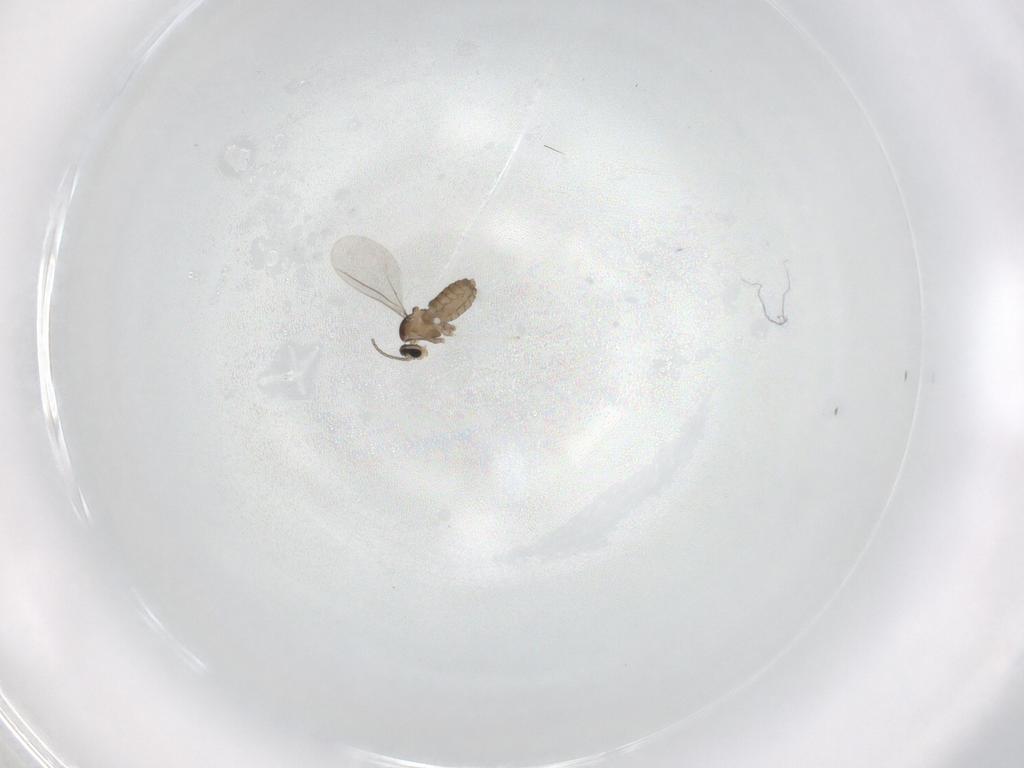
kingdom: Animalia
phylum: Arthropoda
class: Insecta
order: Diptera
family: Cecidomyiidae
